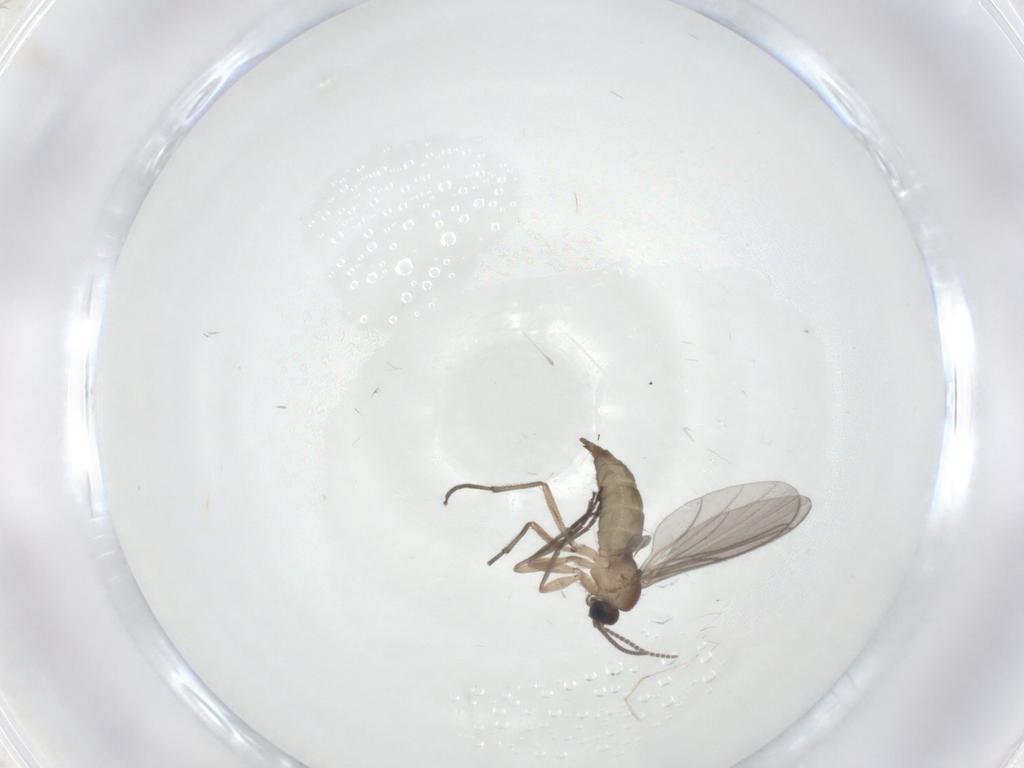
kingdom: Animalia
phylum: Arthropoda
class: Insecta
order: Diptera
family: Sciaridae
